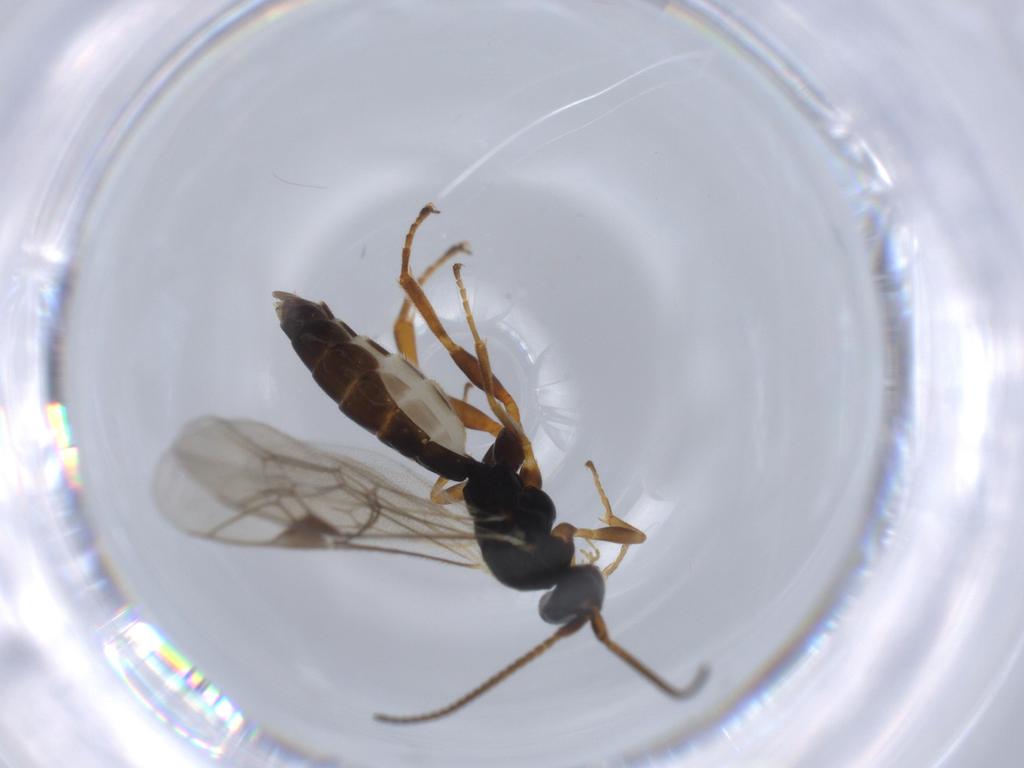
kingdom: Animalia
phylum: Arthropoda
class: Insecta
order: Hymenoptera
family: Ichneumonidae
